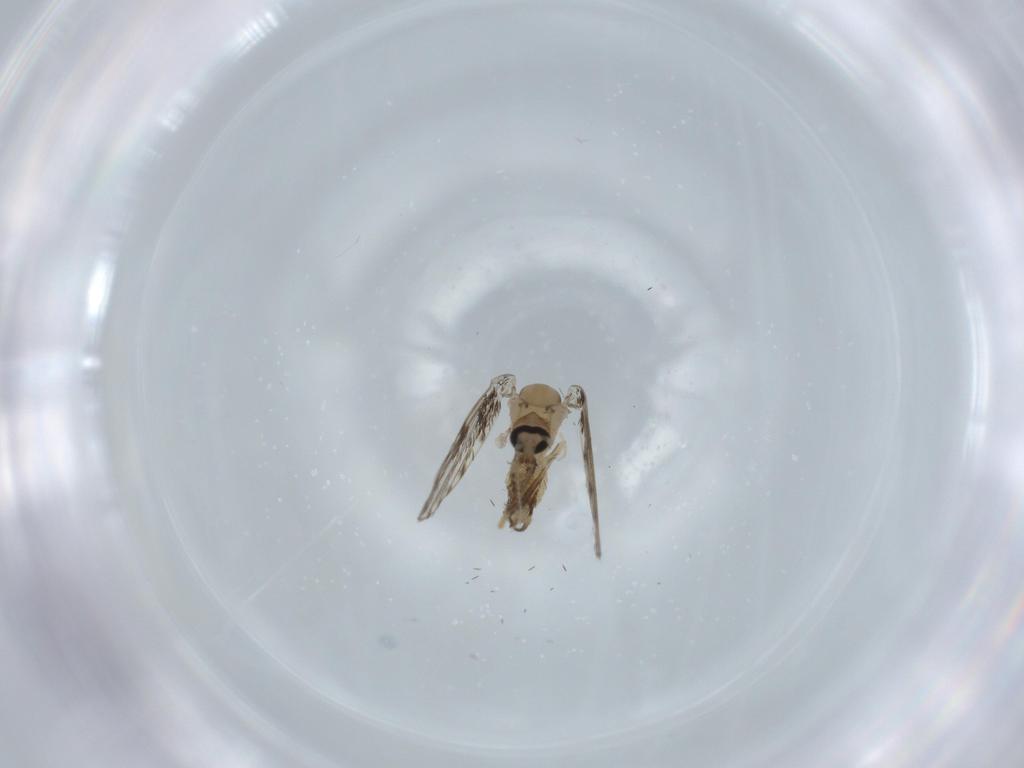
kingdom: Animalia
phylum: Arthropoda
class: Insecta
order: Diptera
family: Psychodidae
